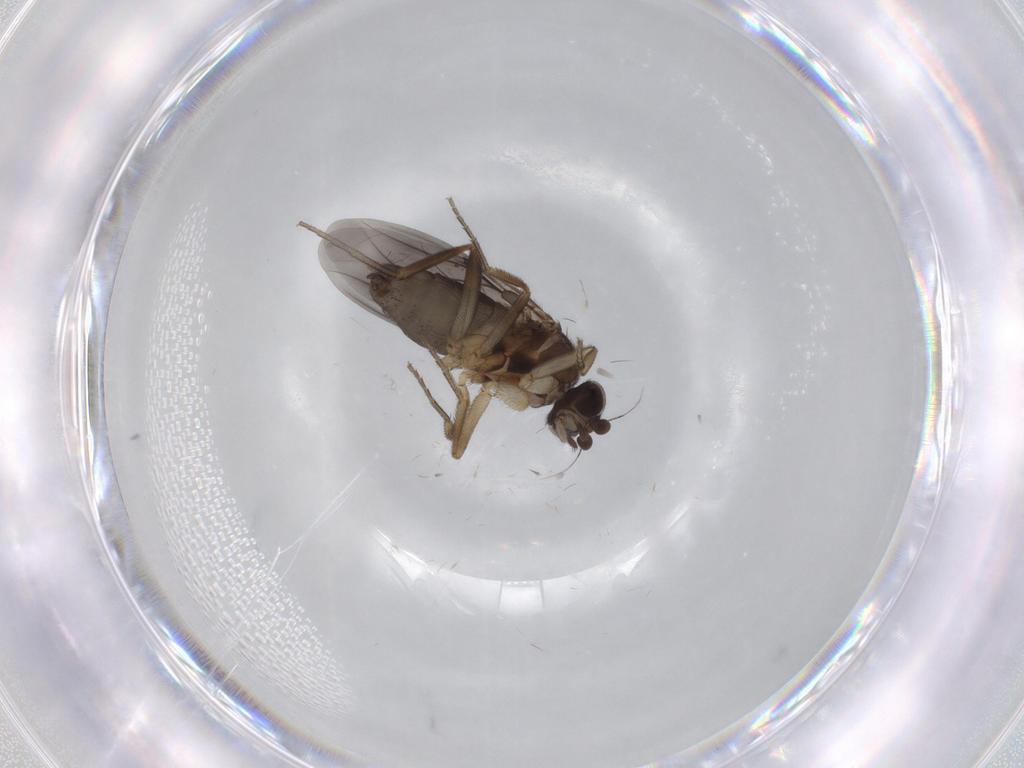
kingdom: Animalia
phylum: Arthropoda
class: Insecta
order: Diptera
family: Phoridae
